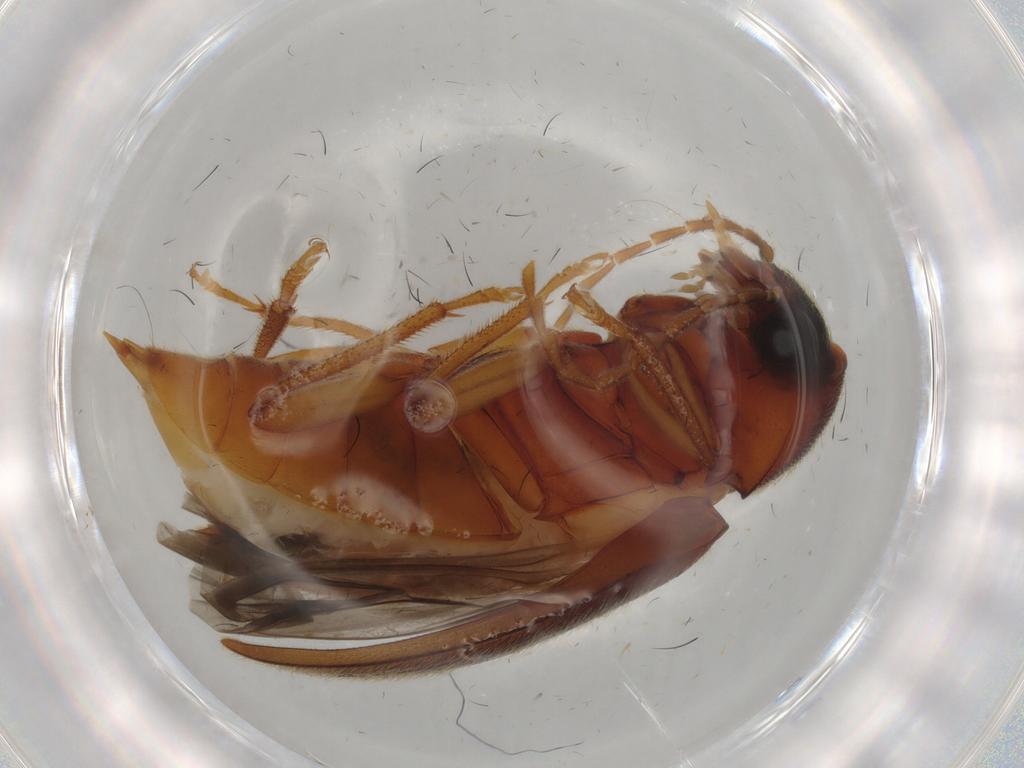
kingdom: Animalia
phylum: Arthropoda
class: Insecta
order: Coleoptera
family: Ptilodactylidae
